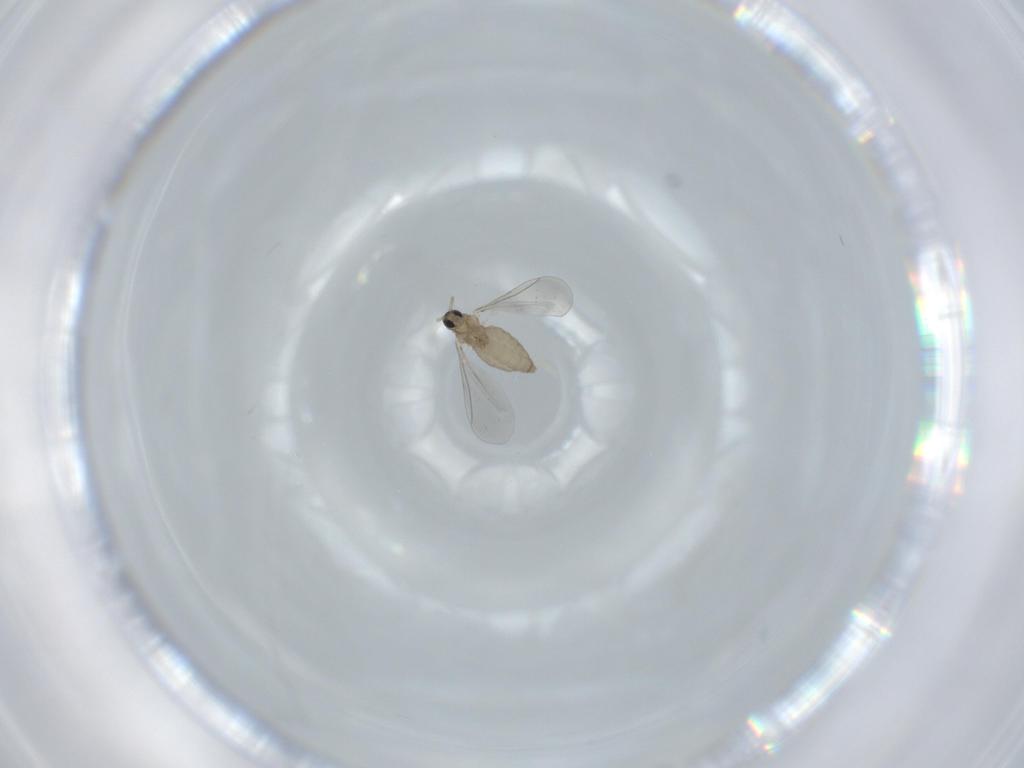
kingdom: Animalia
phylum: Arthropoda
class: Insecta
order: Diptera
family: Cecidomyiidae
